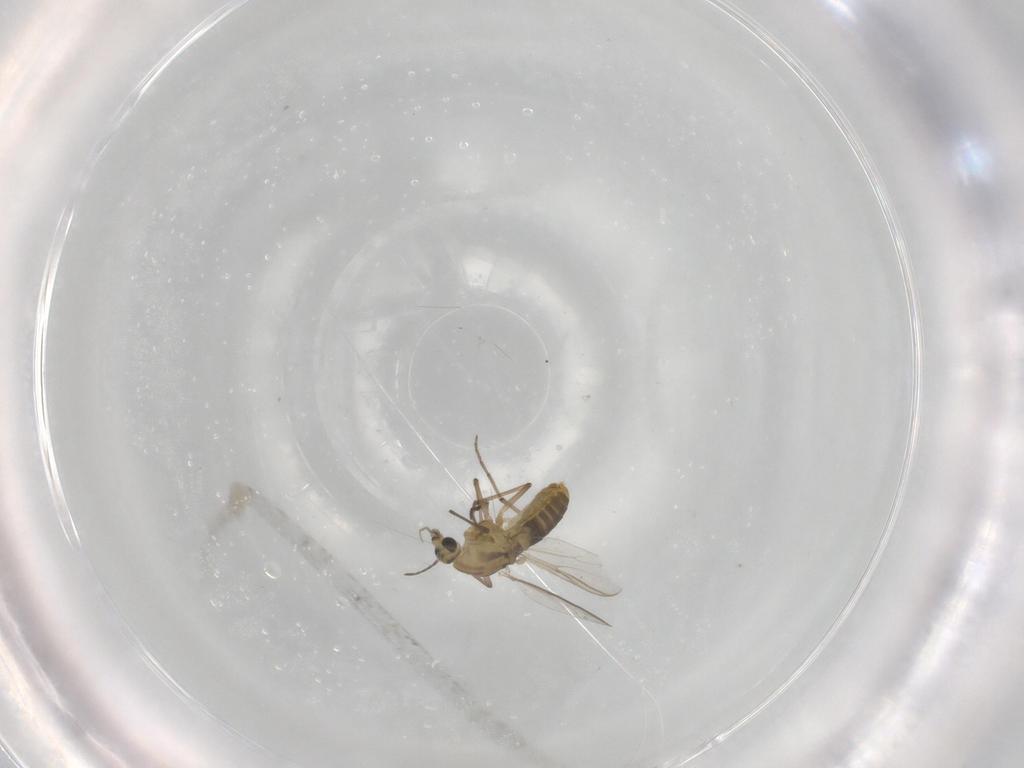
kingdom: Animalia
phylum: Arthropoda
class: Insecta
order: Diptera
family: Chironomidae
